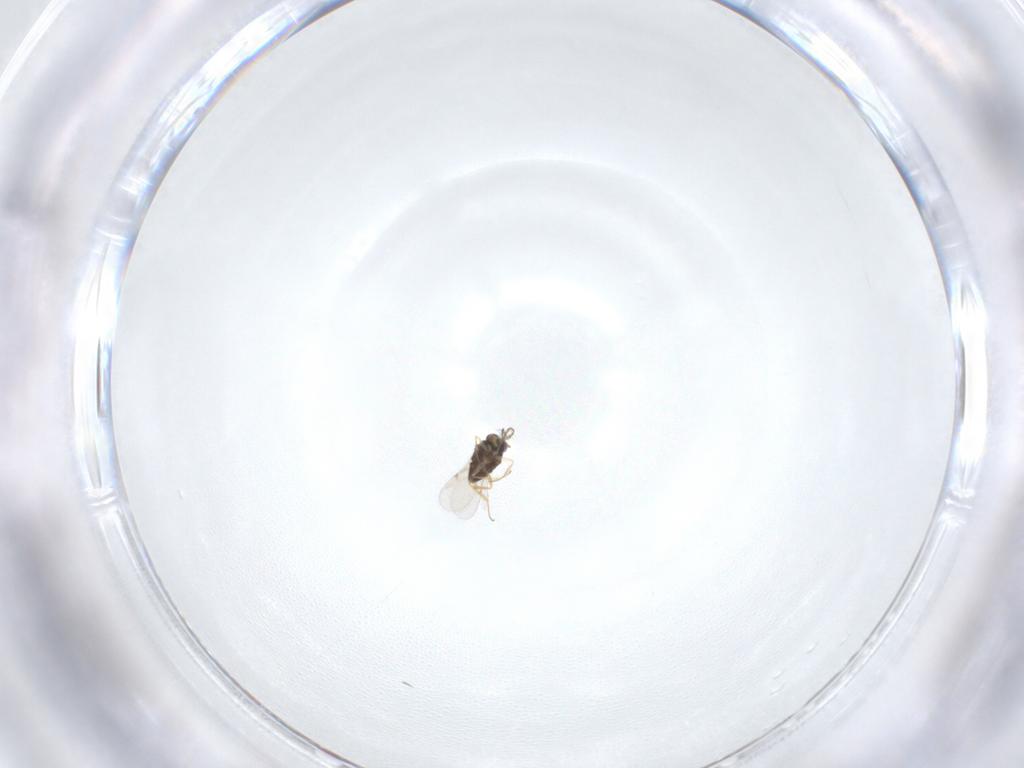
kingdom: Animalia
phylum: Arthropoda
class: Insecta
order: Hymenoptera
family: Encyrtidae
